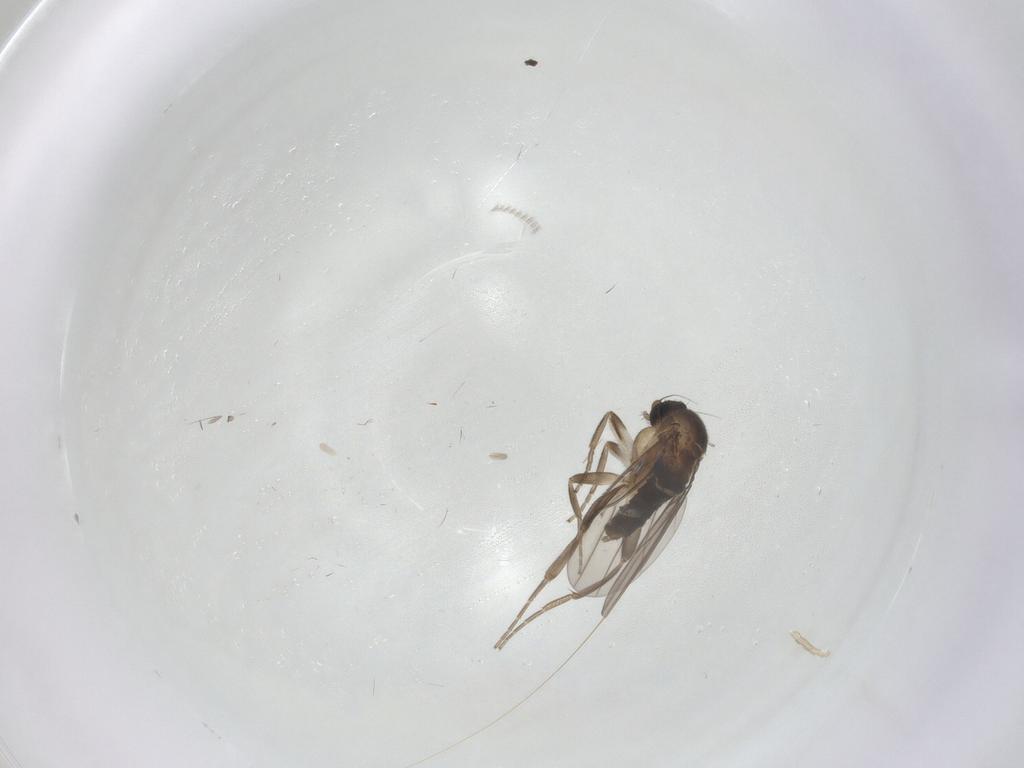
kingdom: Animalia
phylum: Arthropoda
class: Insecta
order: Diptera
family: Cecidomyiidae
